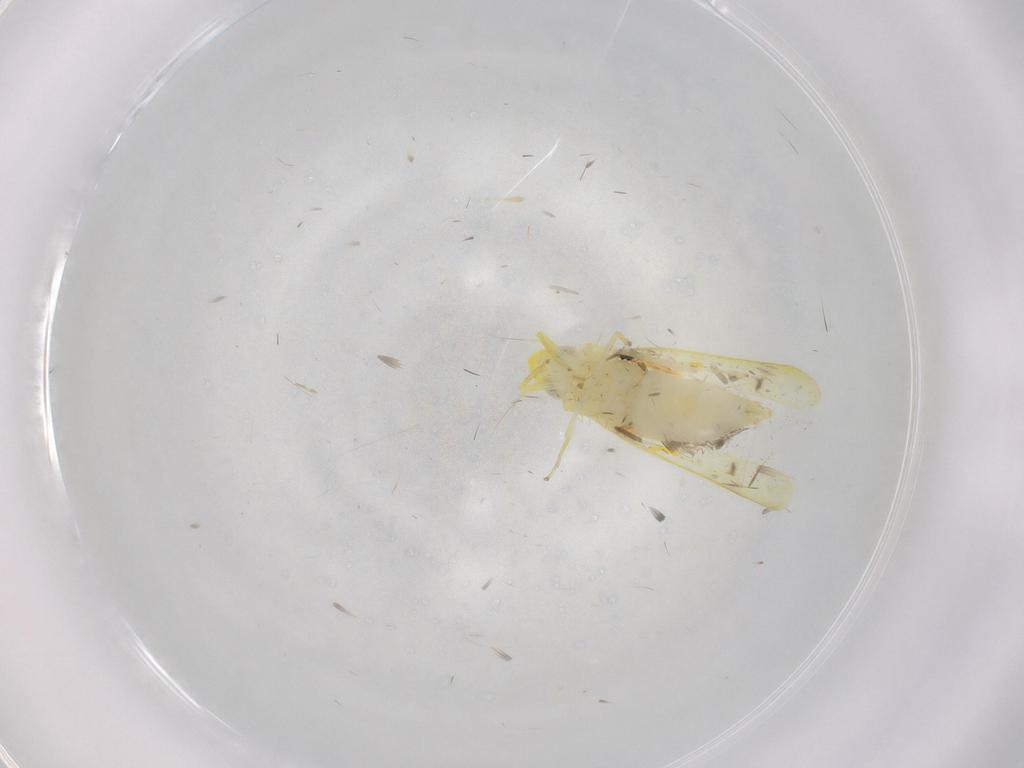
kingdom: Animalia
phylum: Arthropoda
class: Insecta
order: Hemiptera
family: Cicadellidae
